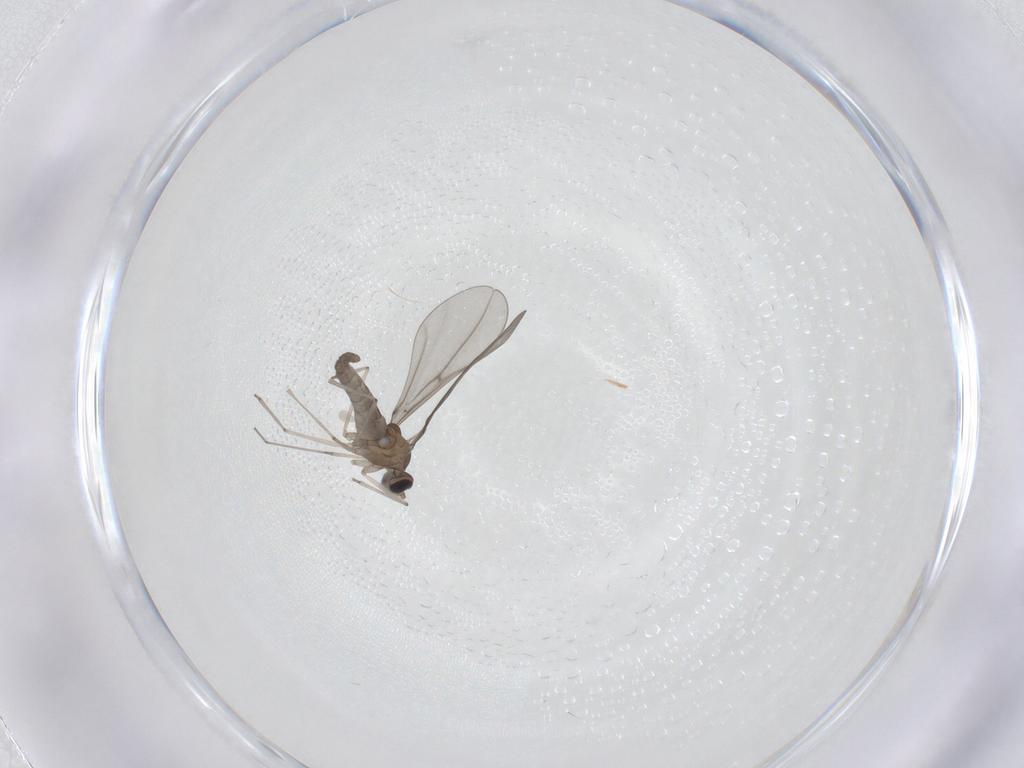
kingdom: Animalia
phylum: Arthropoda
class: Insecta
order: Diptera
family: Cecidomyiidae
